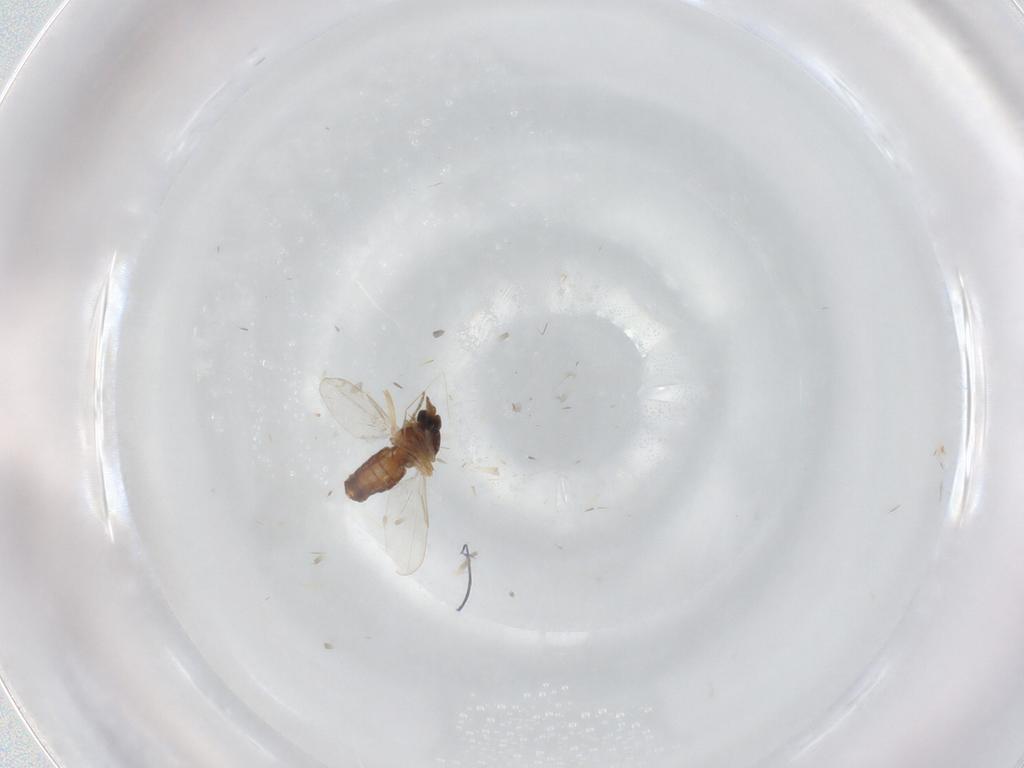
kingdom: Animalia
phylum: Arthropoda
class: Insecta
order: Diptera
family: Ceratopogonidae
